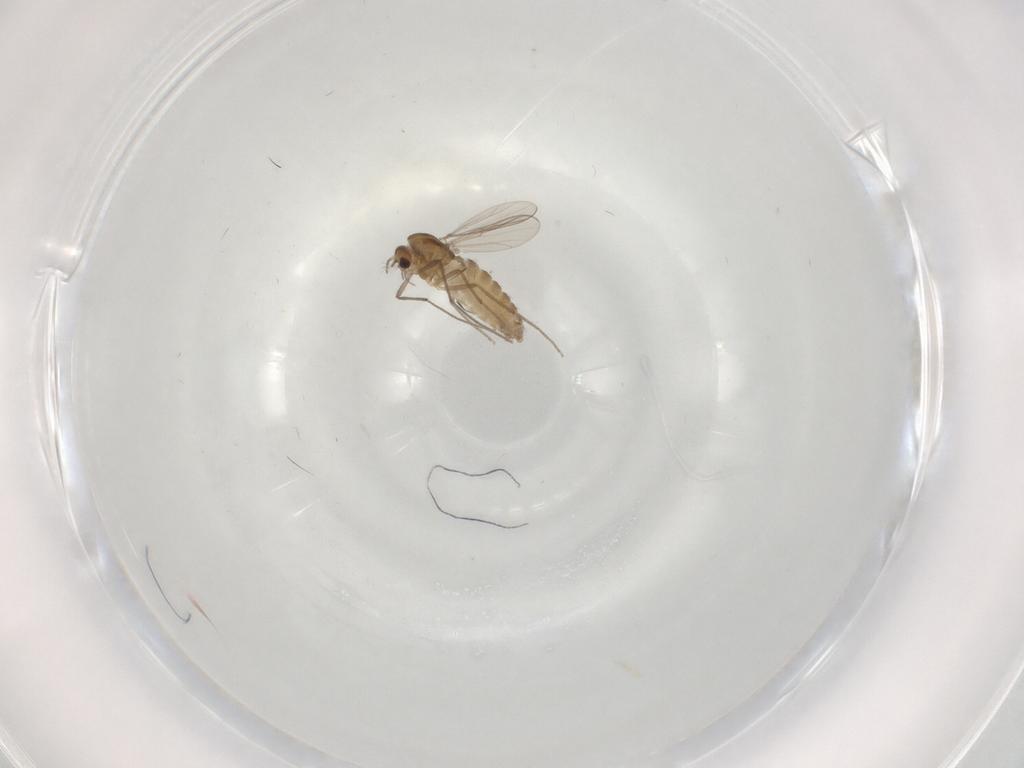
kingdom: Animalia
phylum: Arthropoda
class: Insecta
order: Diptera
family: Chironomidae
